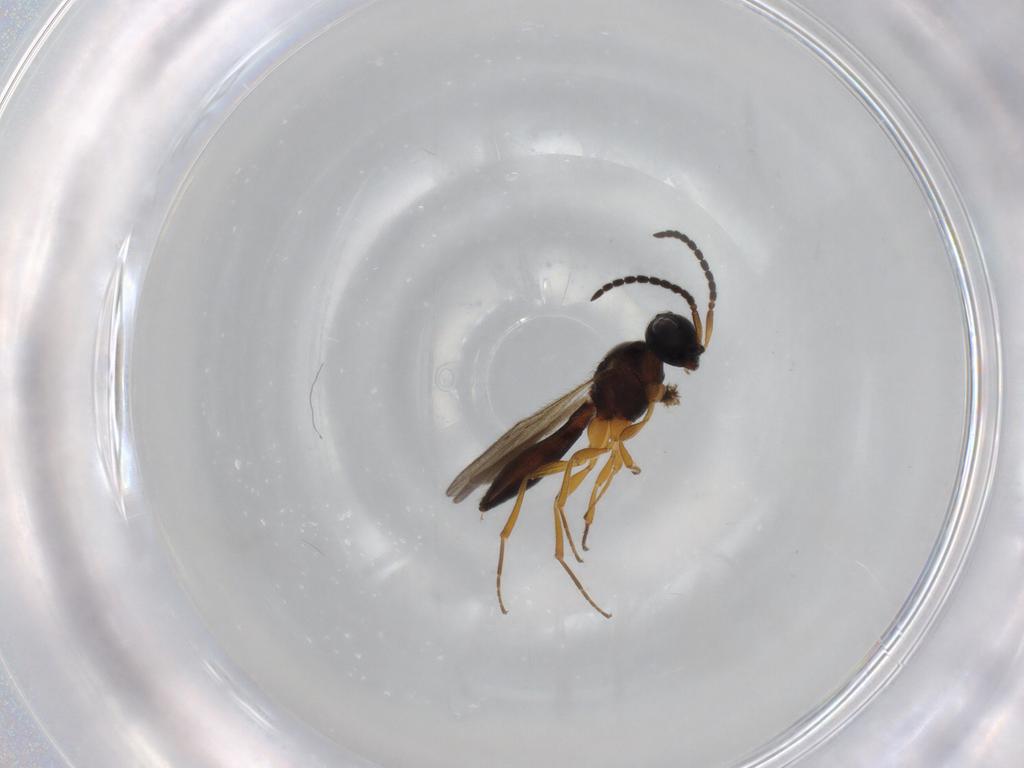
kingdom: Animalia
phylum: Arthropoda
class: Insecta
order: Hymenoptera
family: Scelionidae
